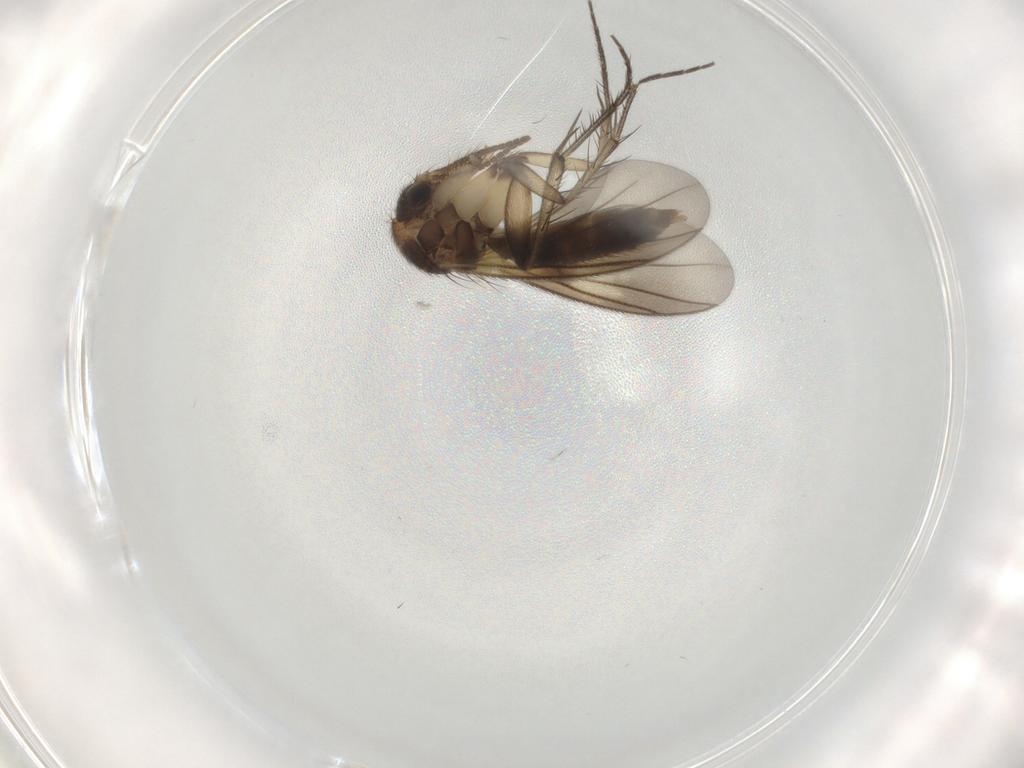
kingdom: Animalia
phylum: Arthropoda
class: Insecta
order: Diptera
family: Mycetophilidae
